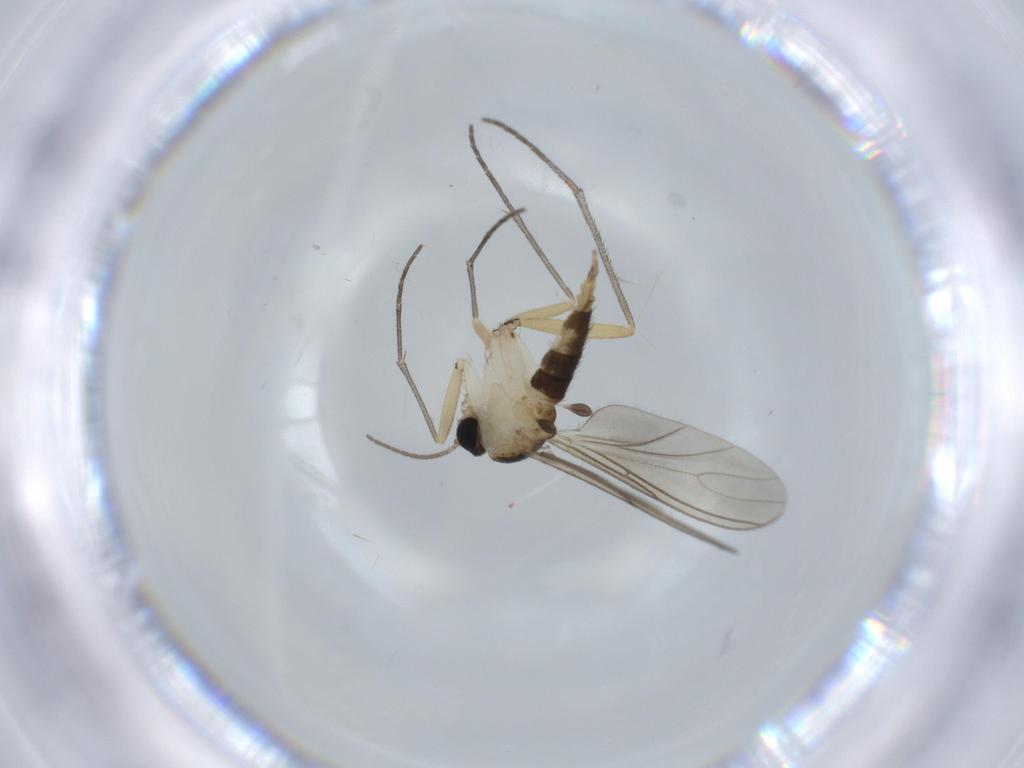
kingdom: Animalia
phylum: Arthropoda
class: Insecta
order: Diptera
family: Sciaridae
